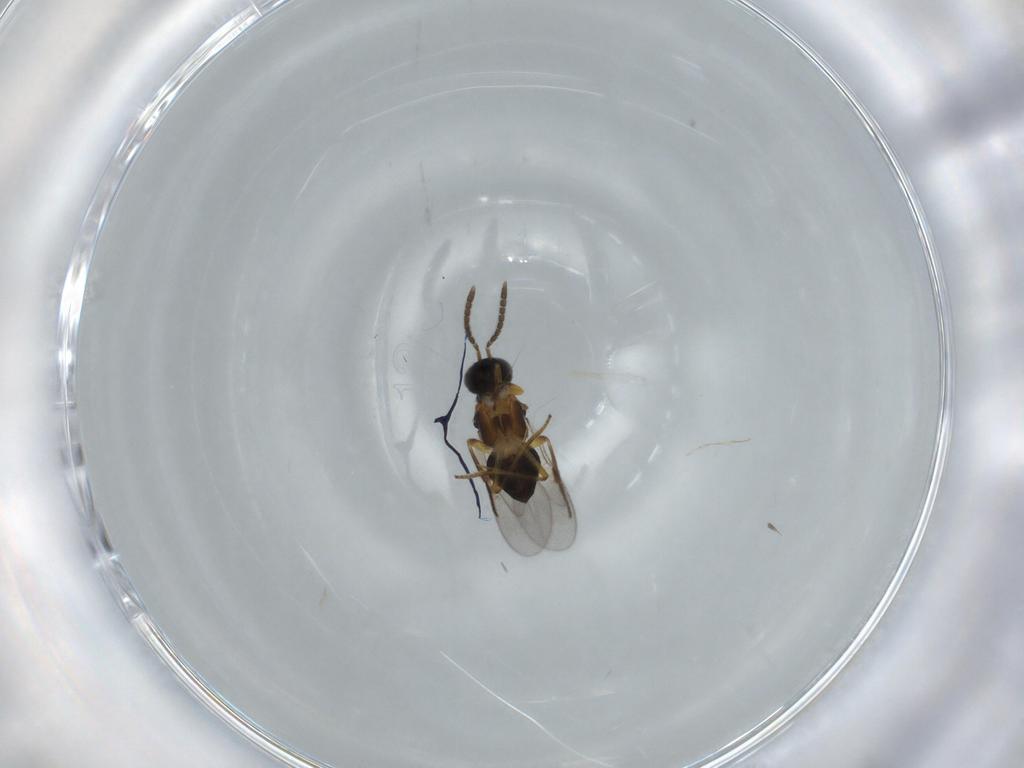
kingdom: Animalia
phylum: Arthropoda
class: Insecta
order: Hymenoptera
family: Encyrtidae
